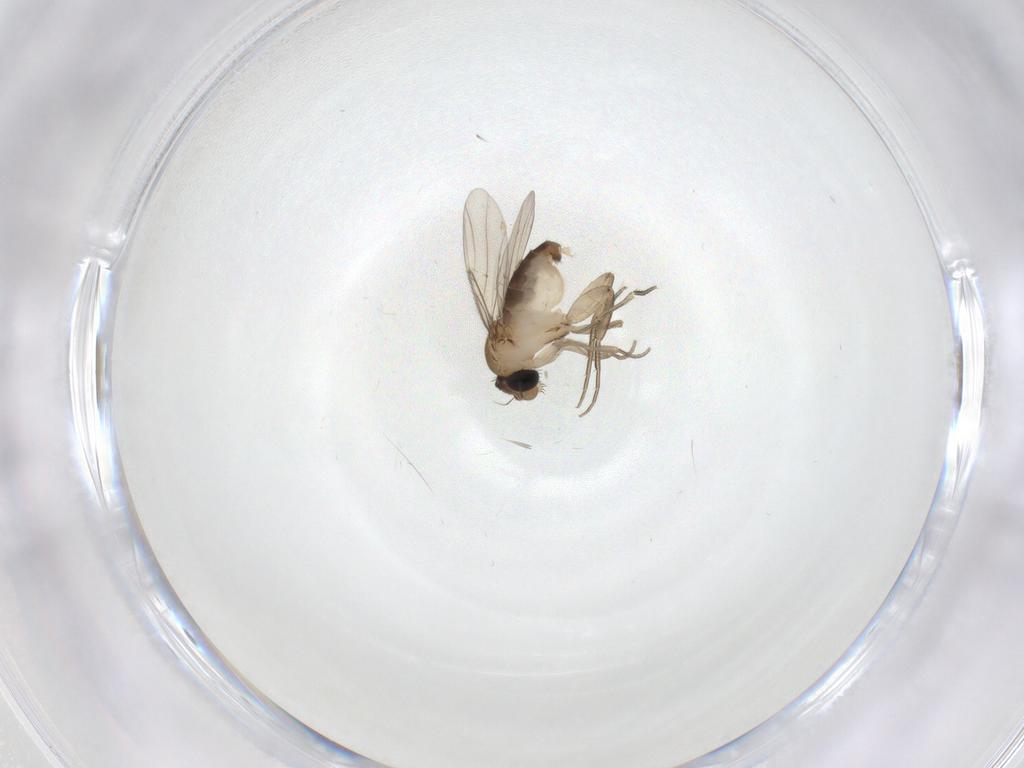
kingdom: Animalia
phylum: Arthropoda
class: Insecta
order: Diptera
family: Phoridae
